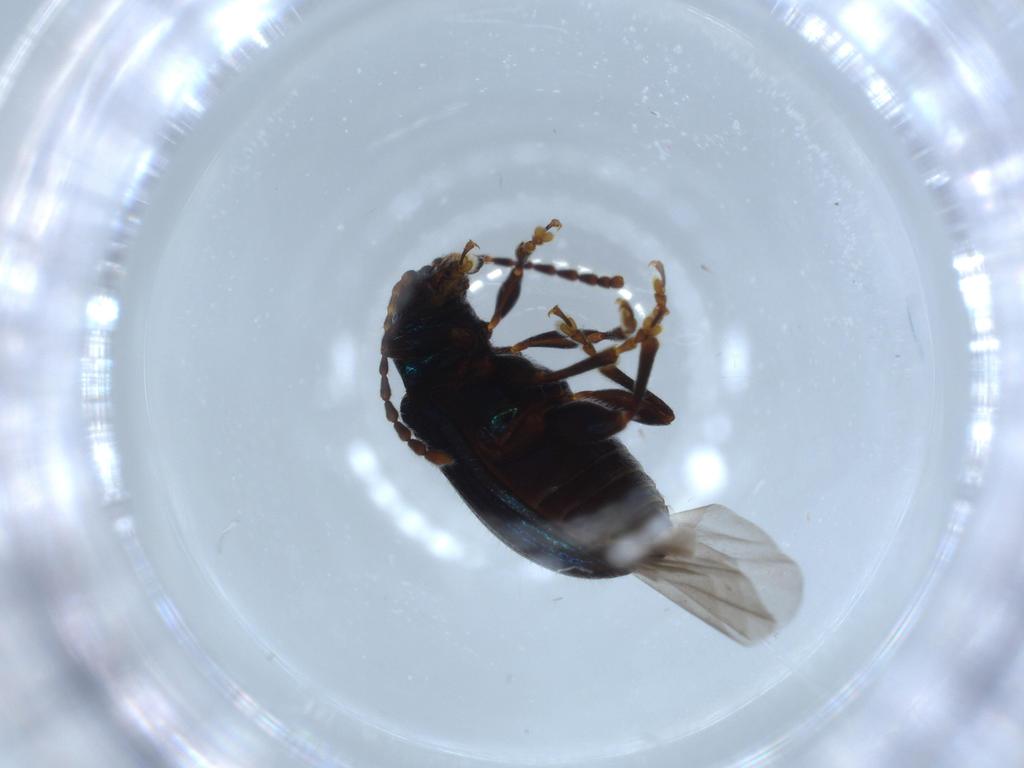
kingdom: Animalia
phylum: Arthropoda
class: Insecta
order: Coleoptera
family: Chrysomelidae
